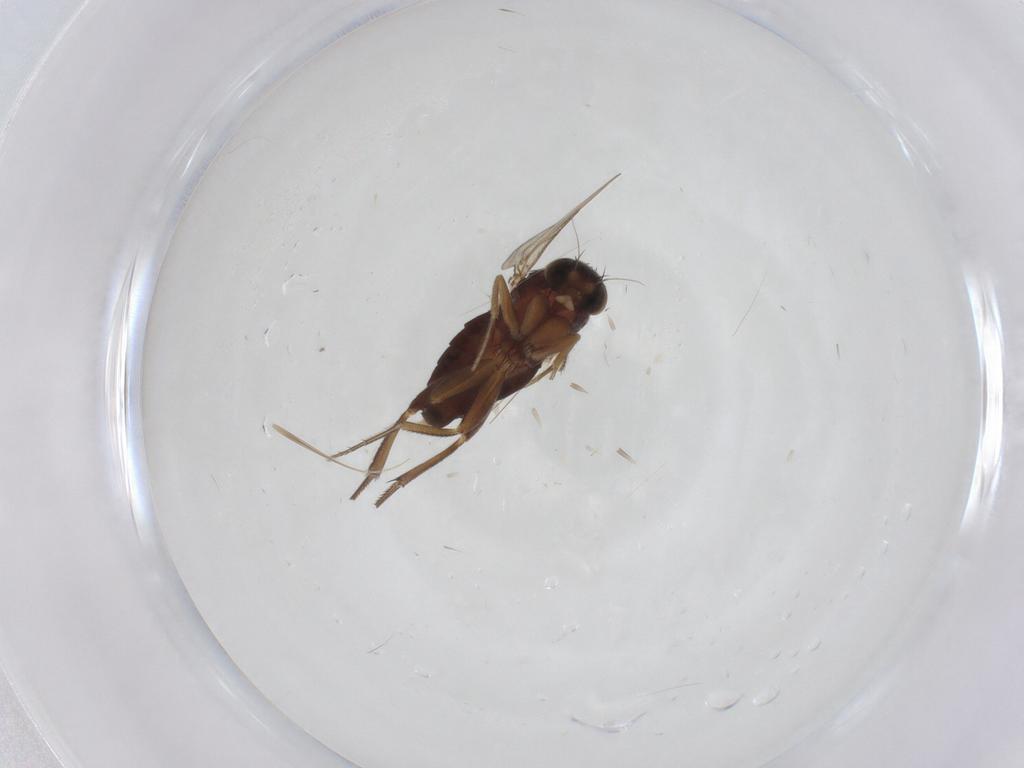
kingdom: Animalia
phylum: Arthropoda
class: Insecta
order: Diptera
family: Phoridae
